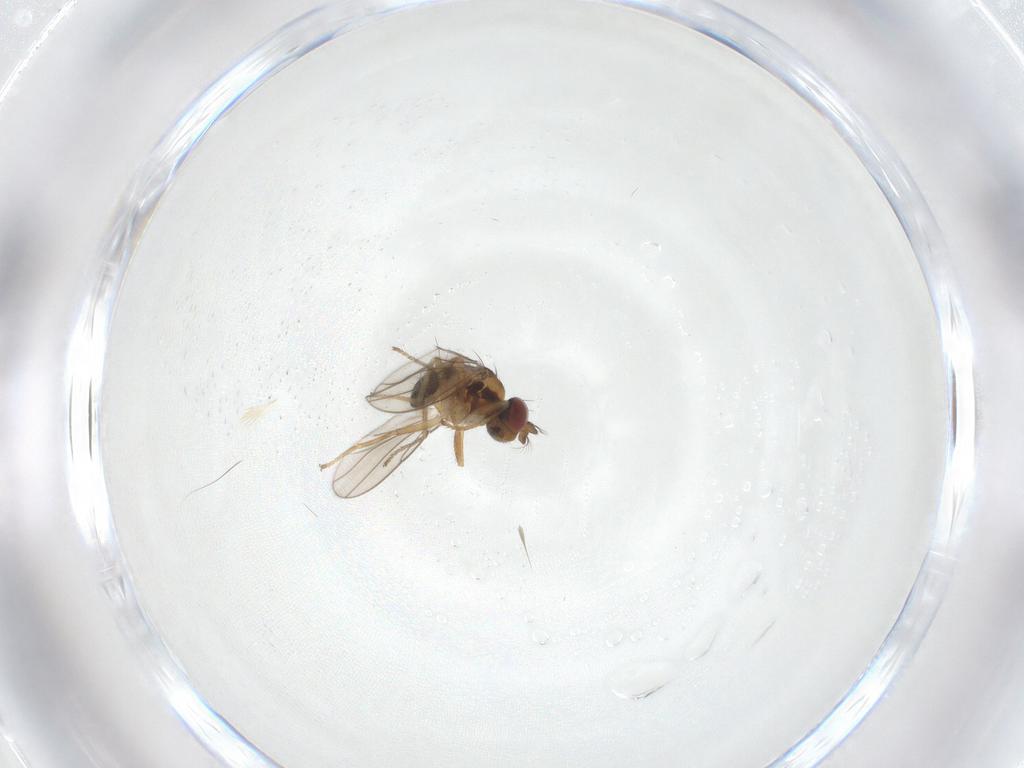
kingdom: Animalia
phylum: Arthropoda
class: Insecta
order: Diptera
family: Ephydridae
